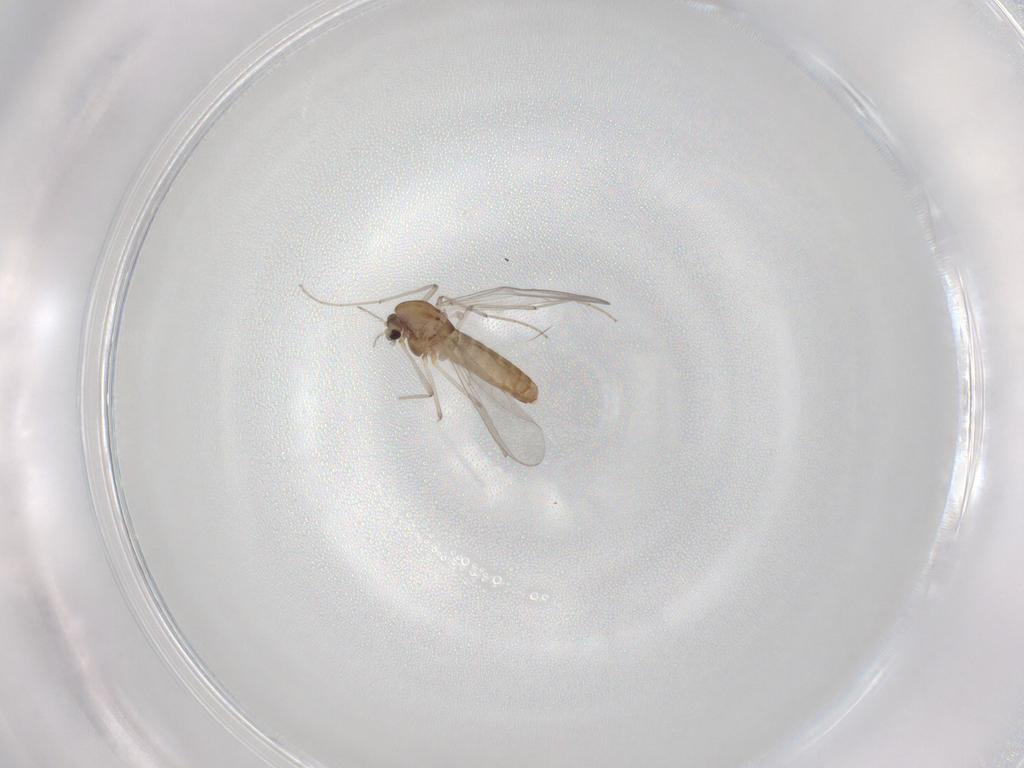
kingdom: Animalia
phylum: Arthropoda
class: Insecta
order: Diptera
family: Chironomidae
